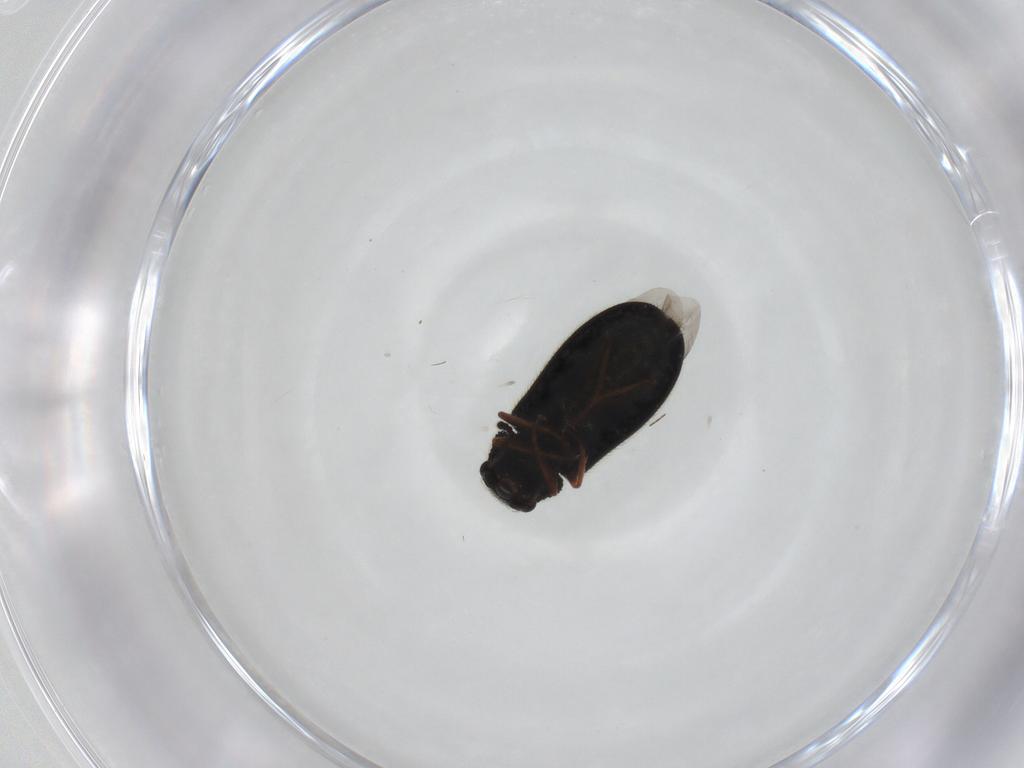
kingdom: Animalia
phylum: Arthropoda
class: Insecta
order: Coleoptera
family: Melyridae
